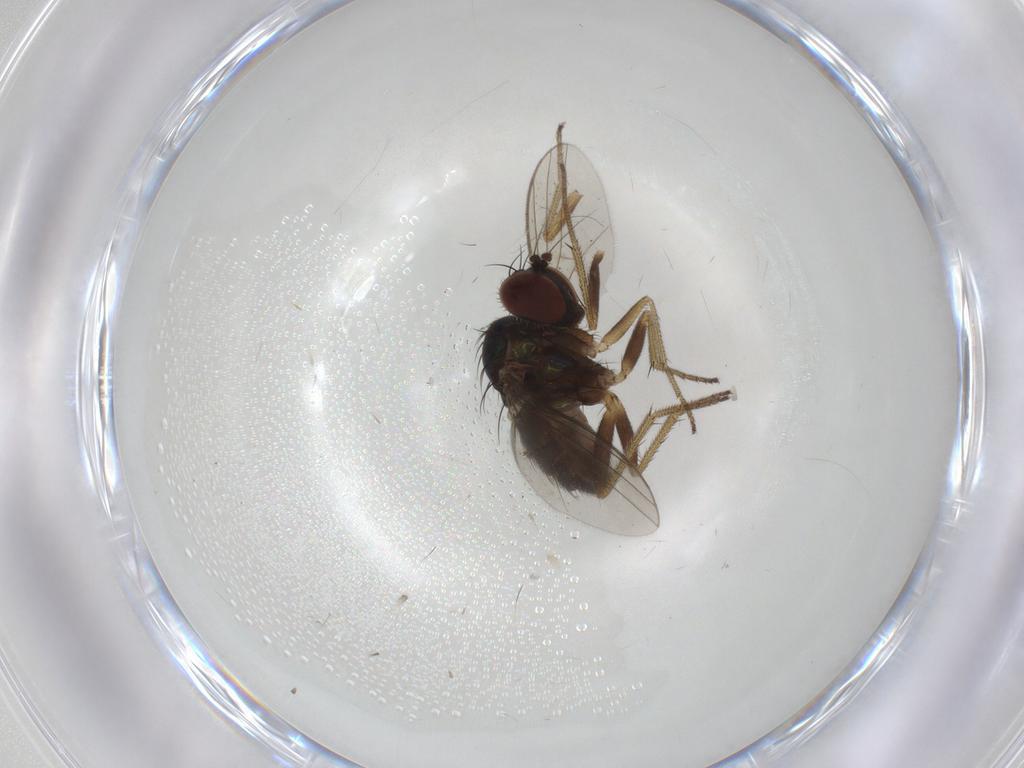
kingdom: Animalia
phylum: Arthropoda
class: Insecta
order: Diptera
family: Dolichopodidae
